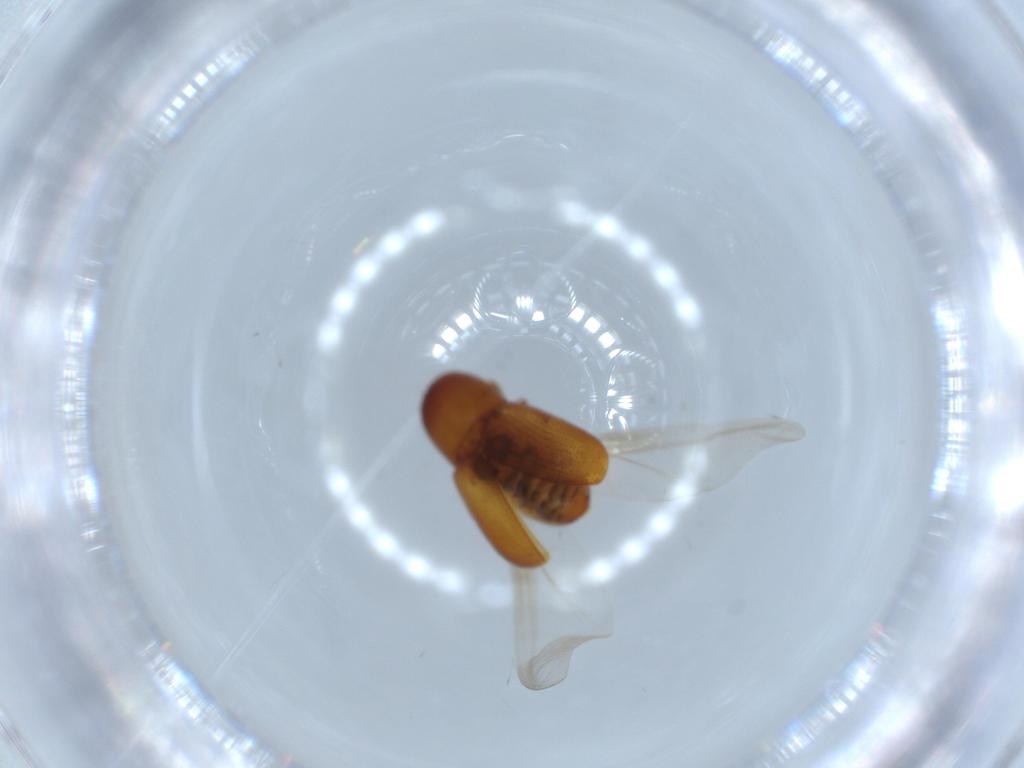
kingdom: Animalia
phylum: Arthropoda
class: Insecta
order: Coleoptera
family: Curculionidae
